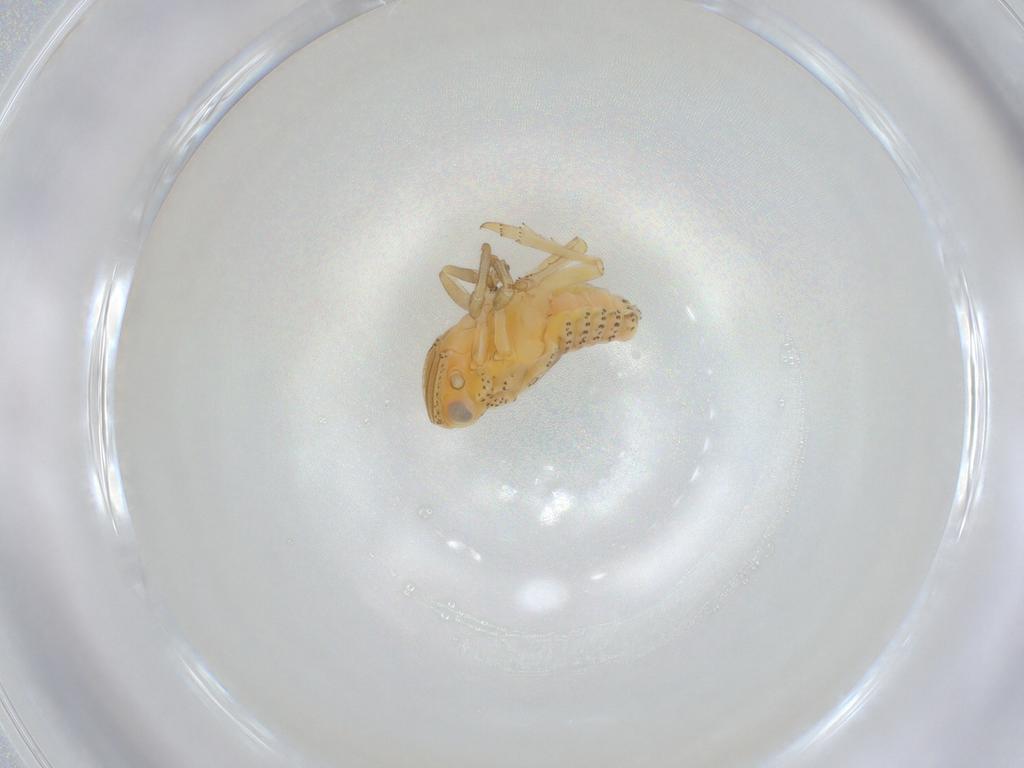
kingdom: Animalia
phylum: Arthropoda
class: Insecta
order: Hemiptera
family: Tropiduchidae
